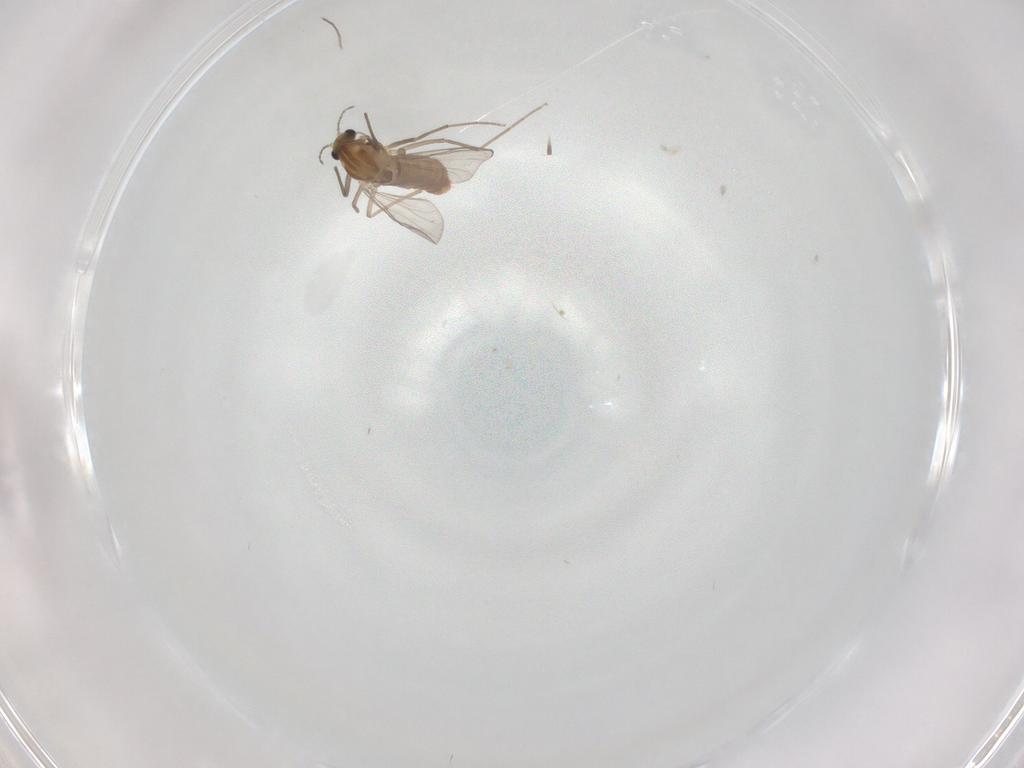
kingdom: Animalia
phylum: Arthropoda
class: Insecta
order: Diptera
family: Chironomidae
